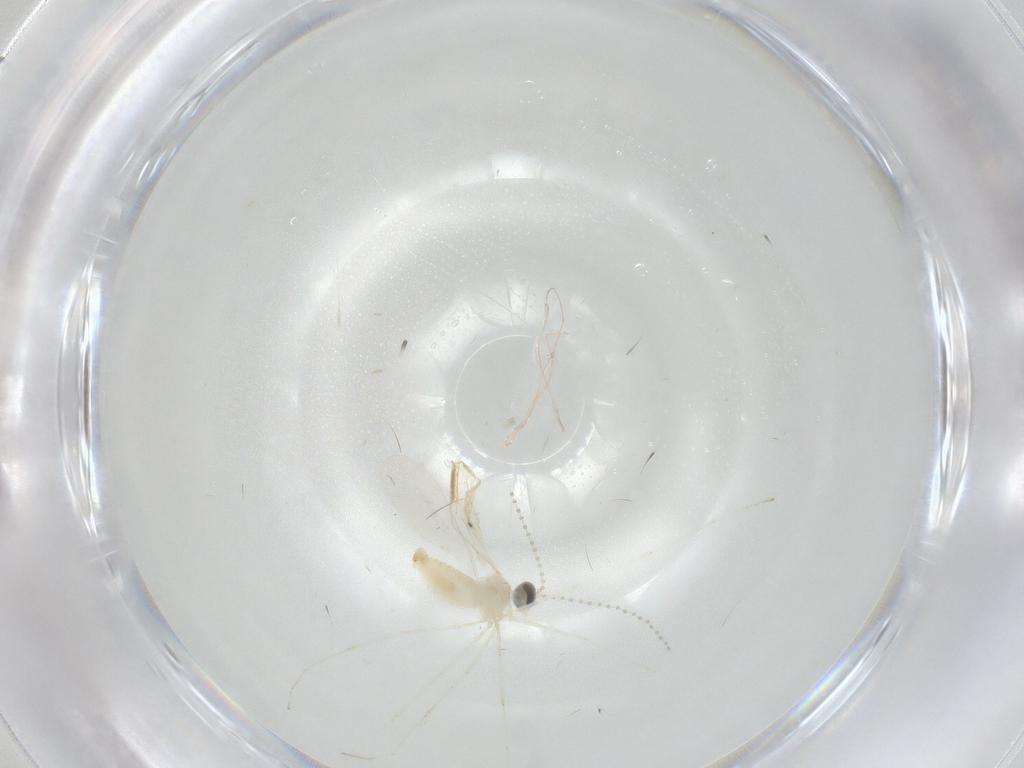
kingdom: Animalia
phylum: Arthropoda
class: Insecta
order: Diptera
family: Cecidomyiidae
